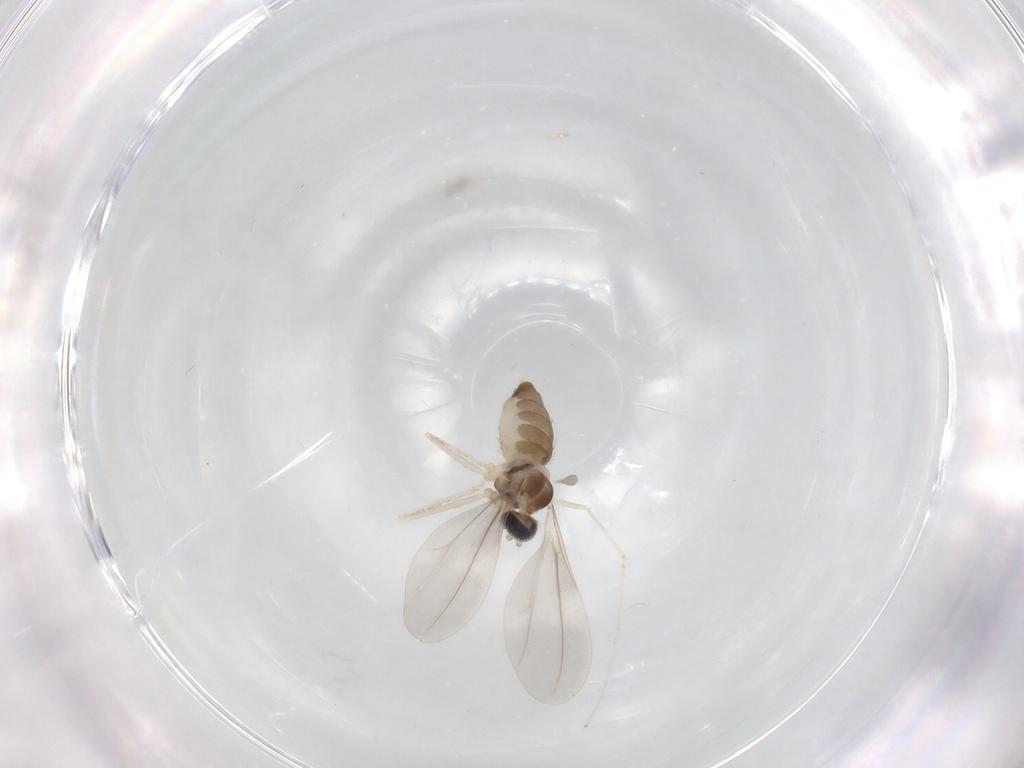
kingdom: Animalia
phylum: Arthropoda
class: Insecta
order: Diptera
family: Cecidomyiidae
